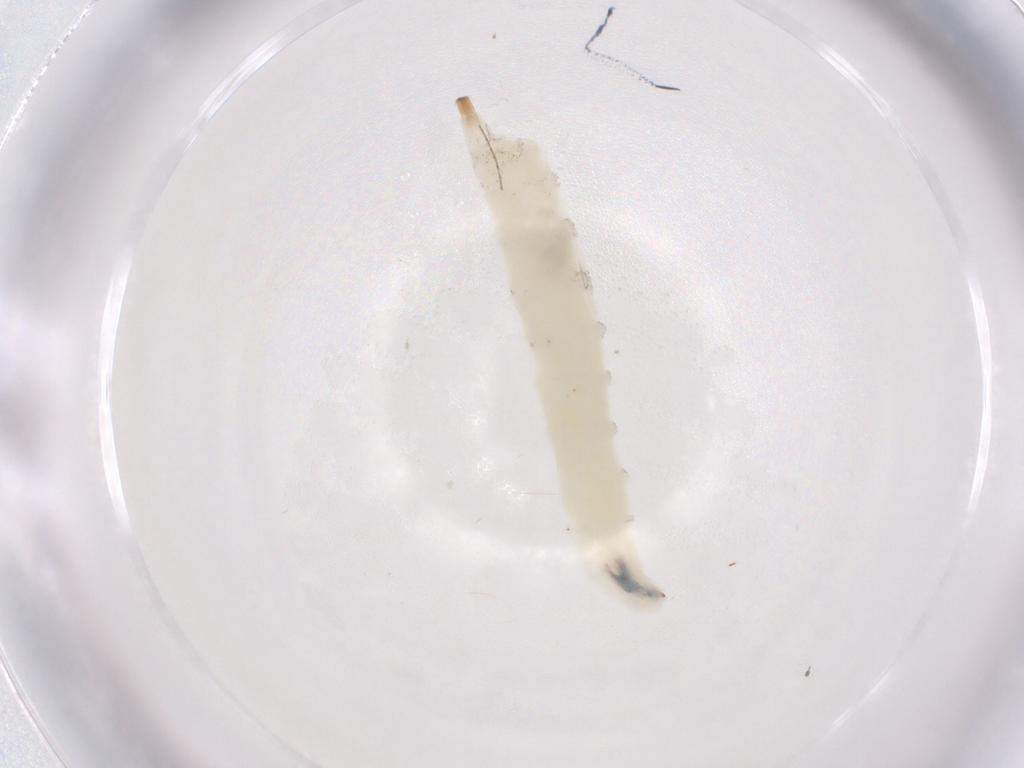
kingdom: Animalia
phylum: Arthropoda
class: Insecta
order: Diptera
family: Drosophilidae
